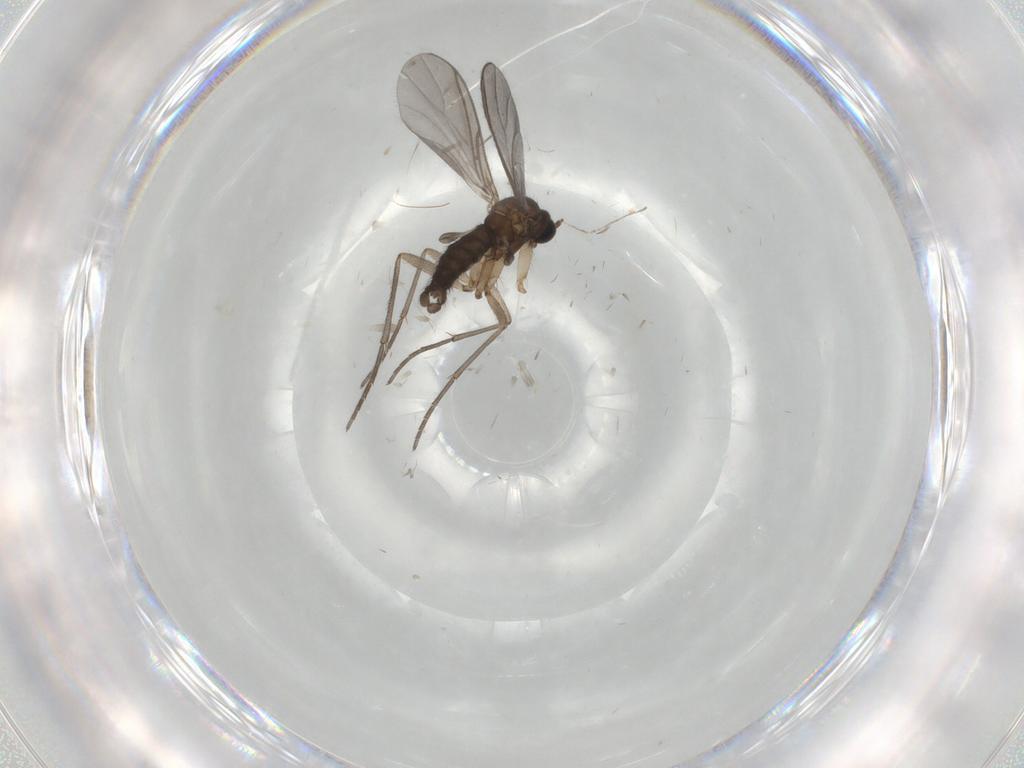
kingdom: Animalia
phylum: Arthropoda
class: Insecta
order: Diptera
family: Sciaridae
